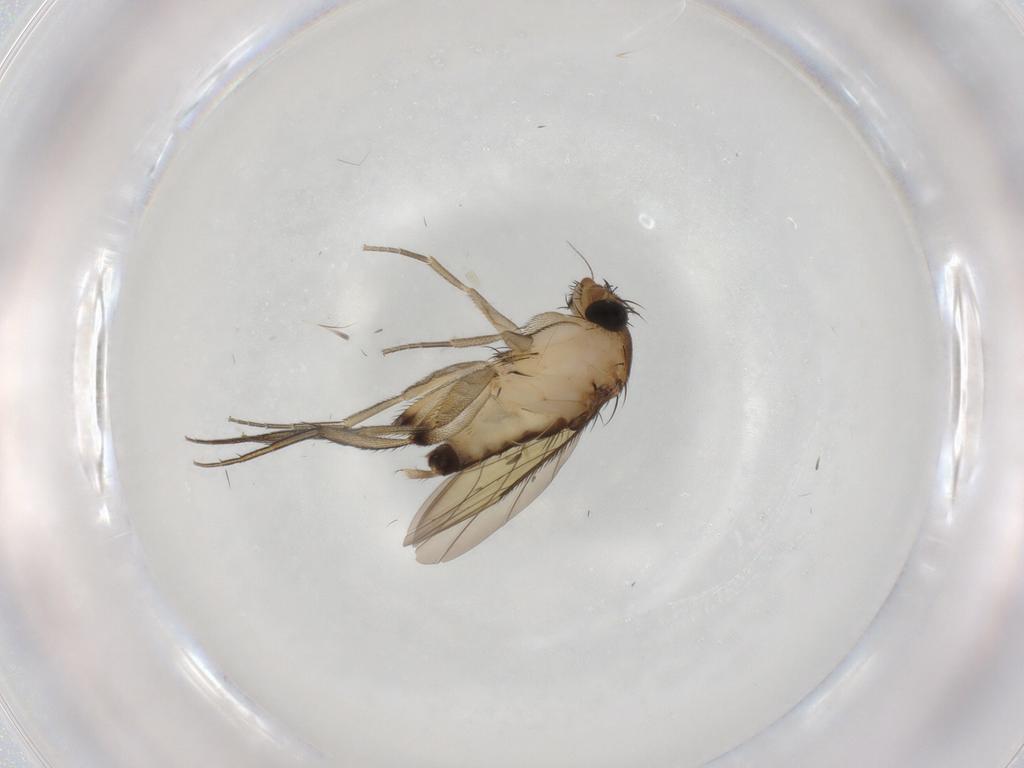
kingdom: Animalia
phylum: Arthropoda
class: Insecta
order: Diptera
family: Phoridae
